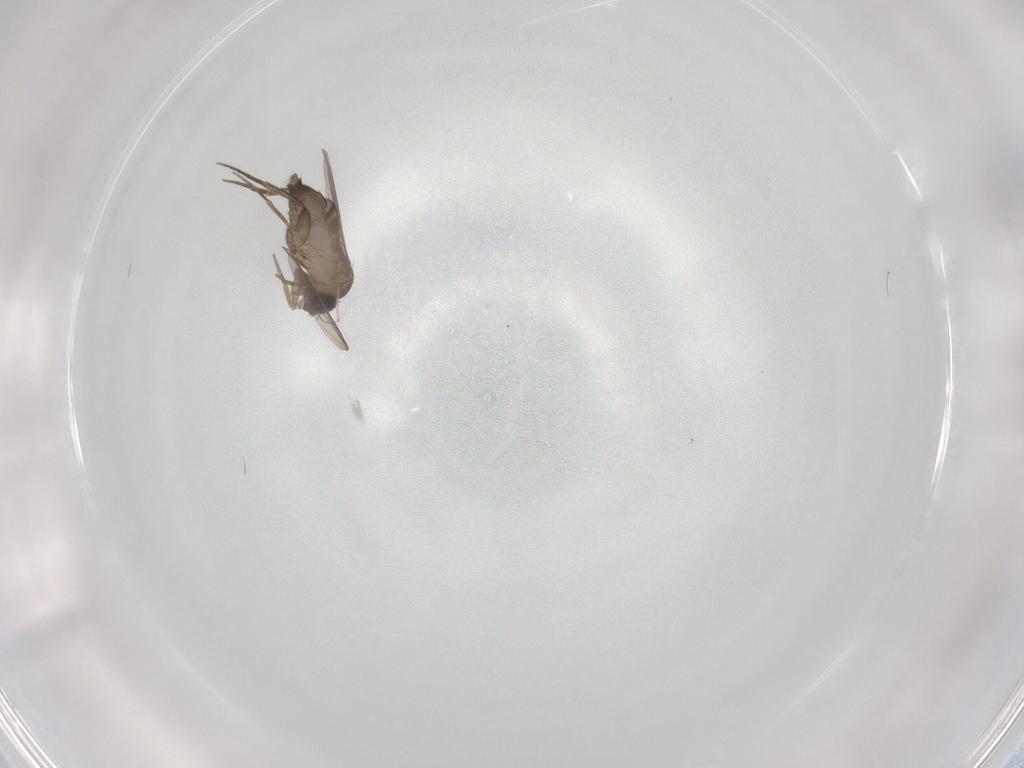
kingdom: Animalia
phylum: Arthropoda
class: Insecta
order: Diptera
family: Phoridae
